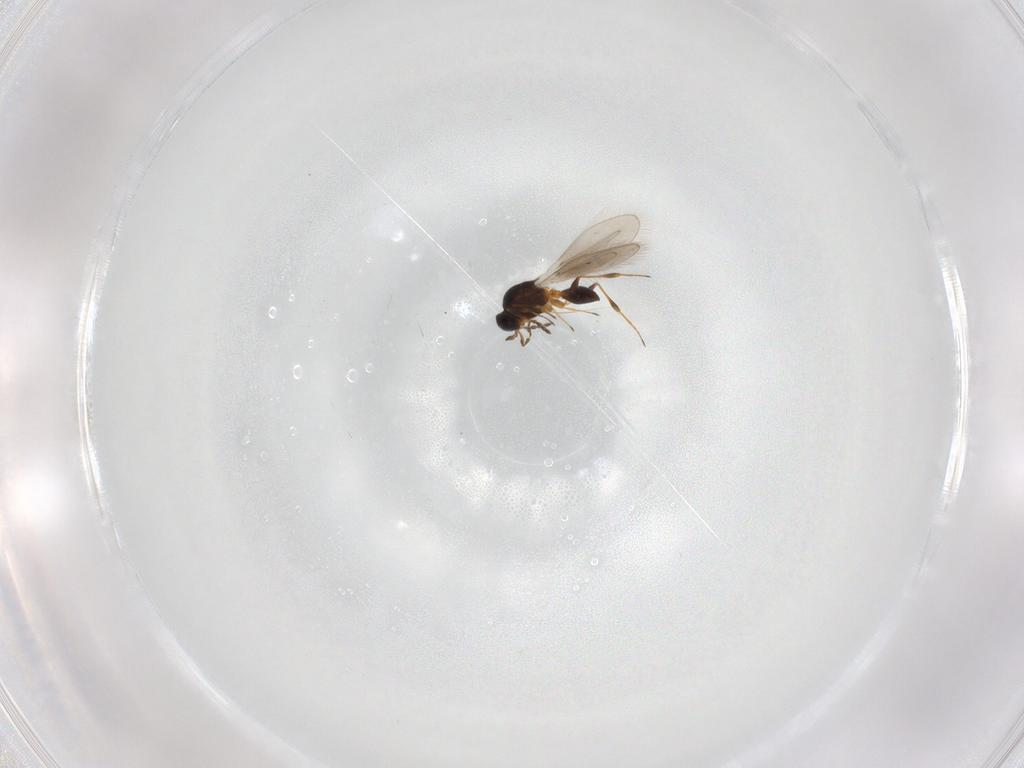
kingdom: Animalia
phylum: Arthropoda
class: Insecta
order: Hymenoptera
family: Platygastridae
